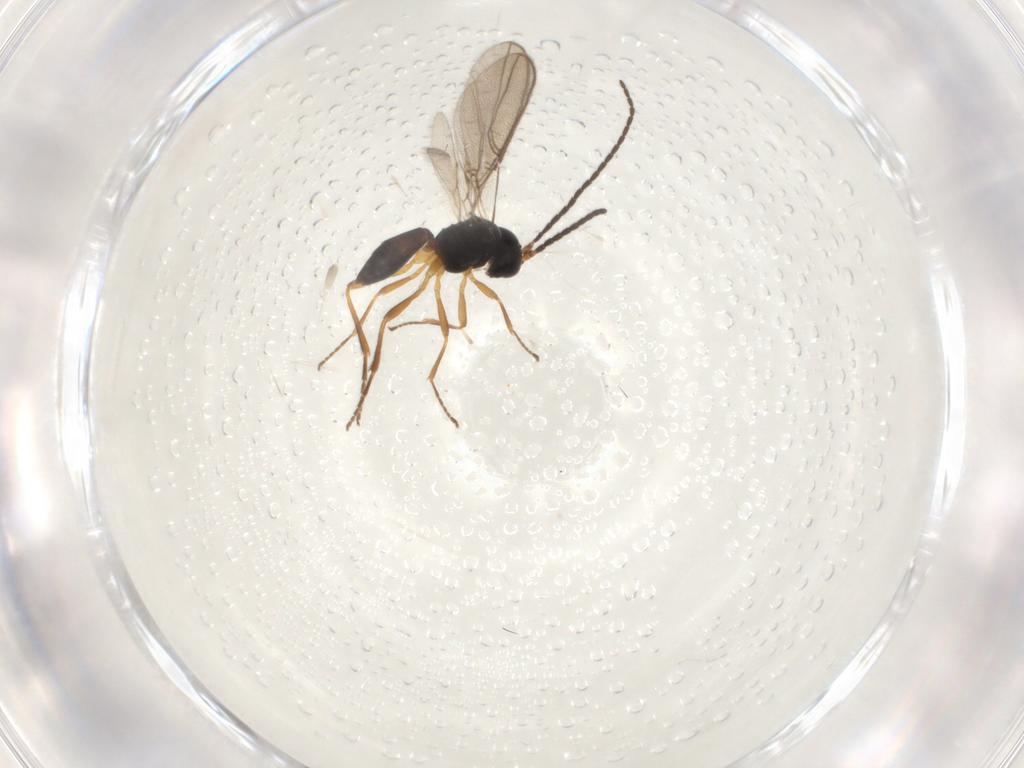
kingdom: Animalia
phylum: Arthropoda
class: Insecta
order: Hymenoptera
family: Braconidae
